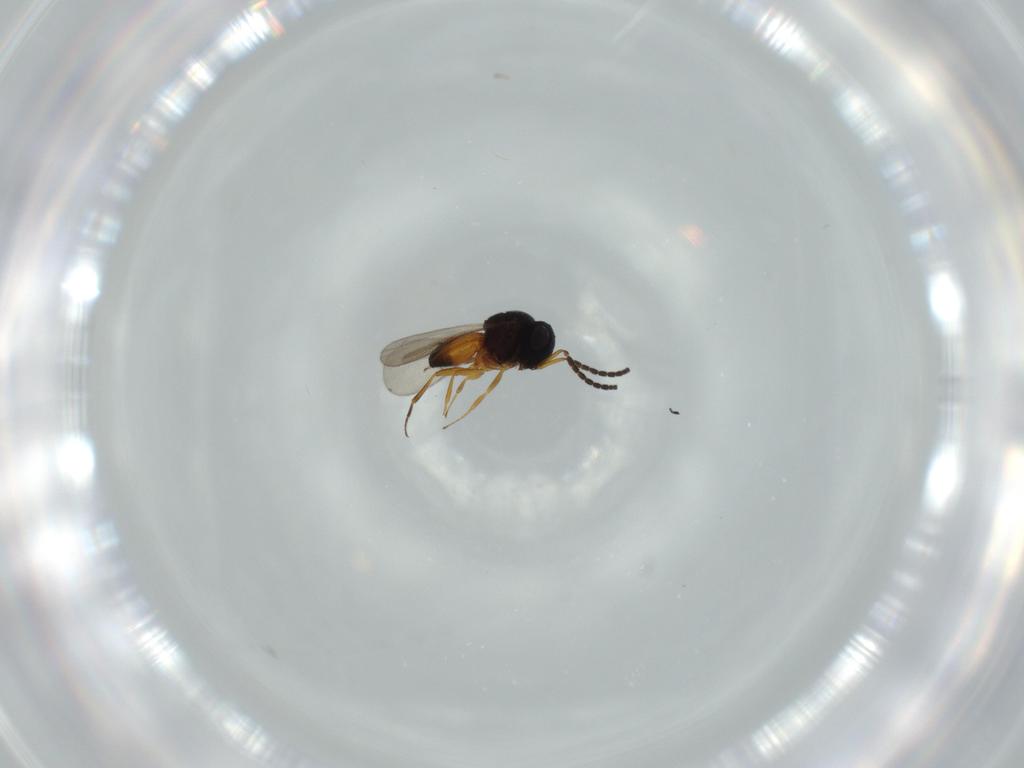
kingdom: Animalia
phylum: Arthropoda
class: Insecta
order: Hymenoptera
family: Scelionidae
